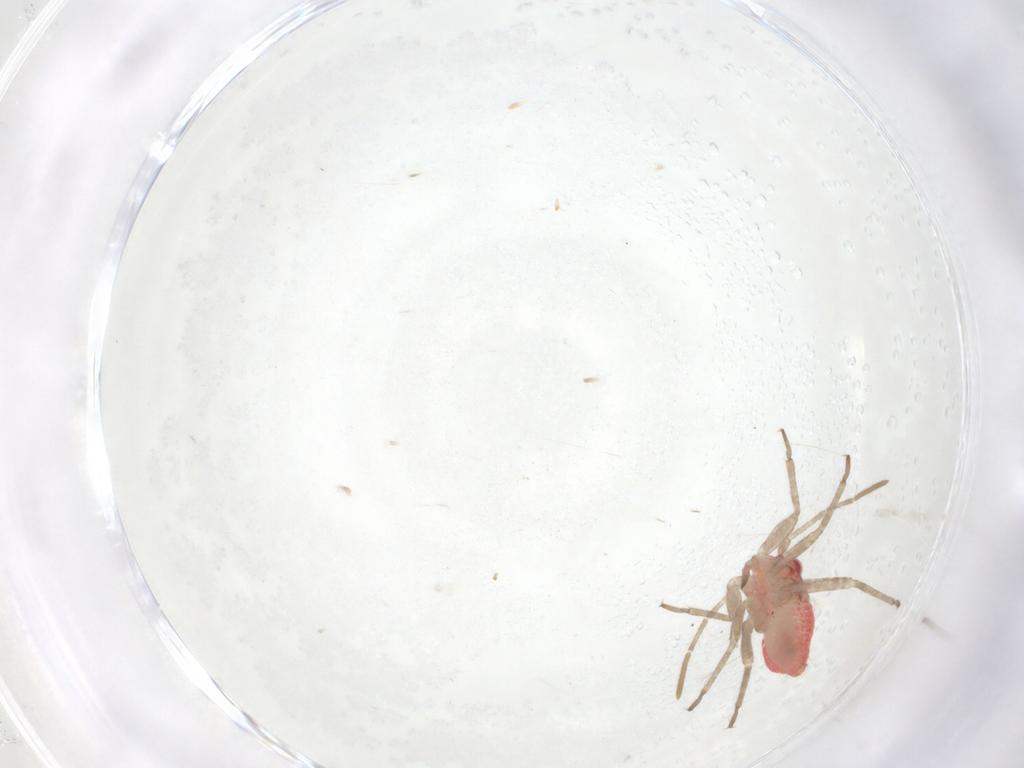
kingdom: Animalia
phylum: Arthropoda
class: Insecta
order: Hemiptera
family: Miridae
